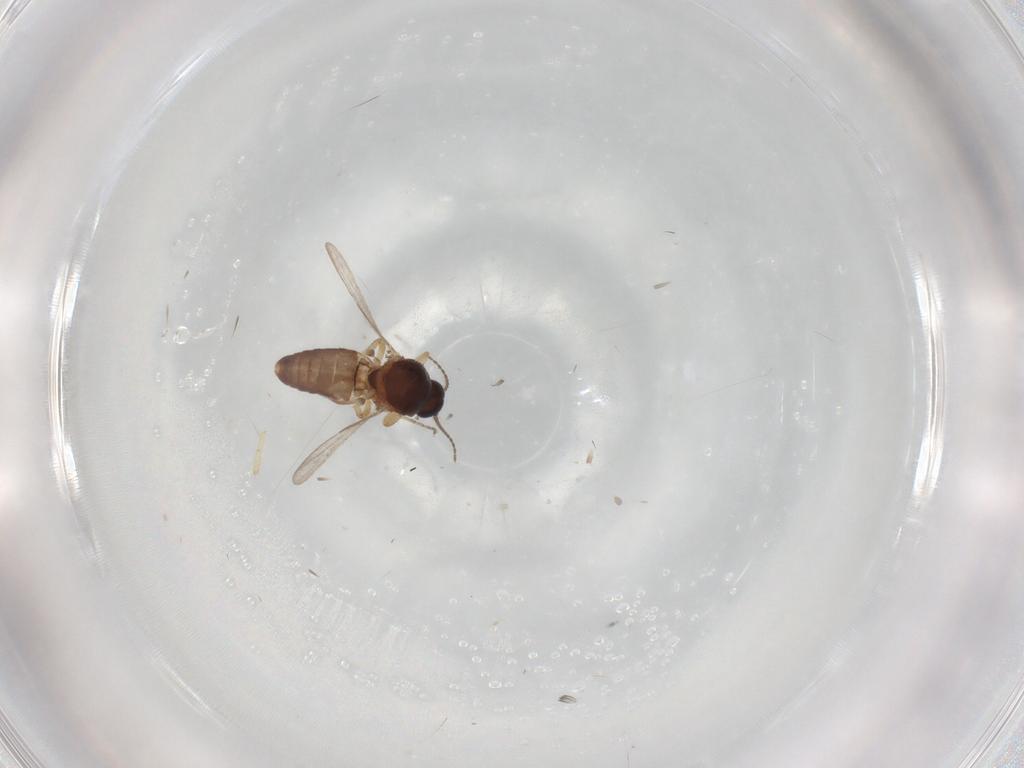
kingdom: Animalia
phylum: Arthropoda
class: Insecta
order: Diptera
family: Ceratopogonidae
